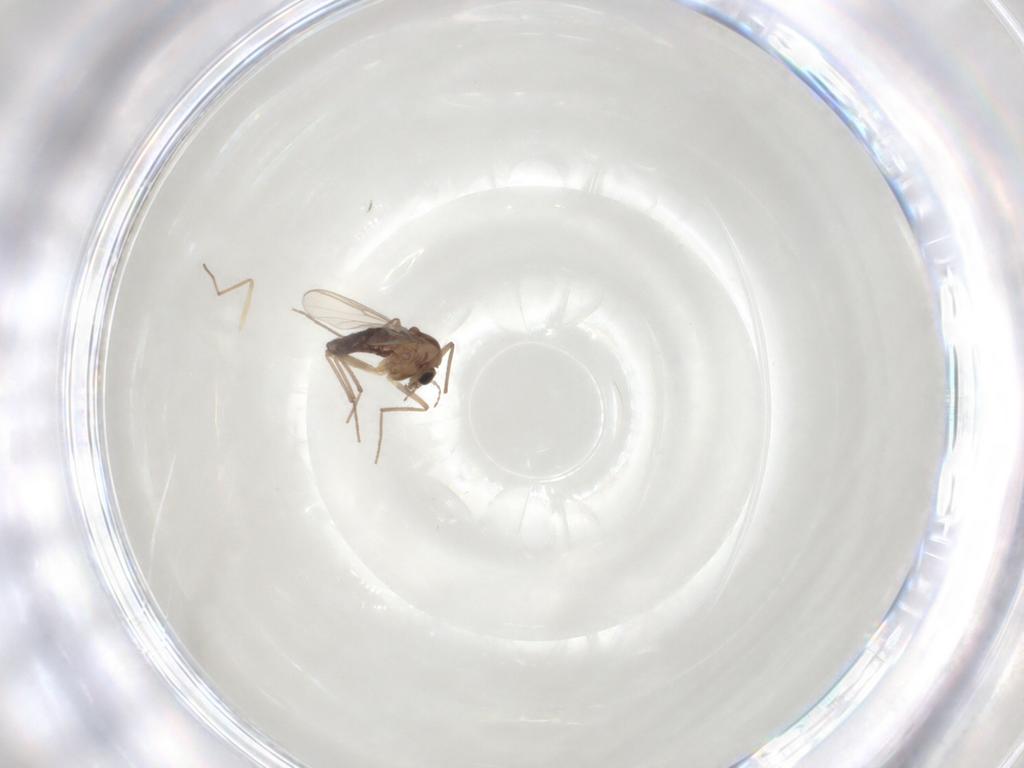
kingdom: Animalia
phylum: Arthropoda
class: Insecta
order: Diptera
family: Chironomidae
